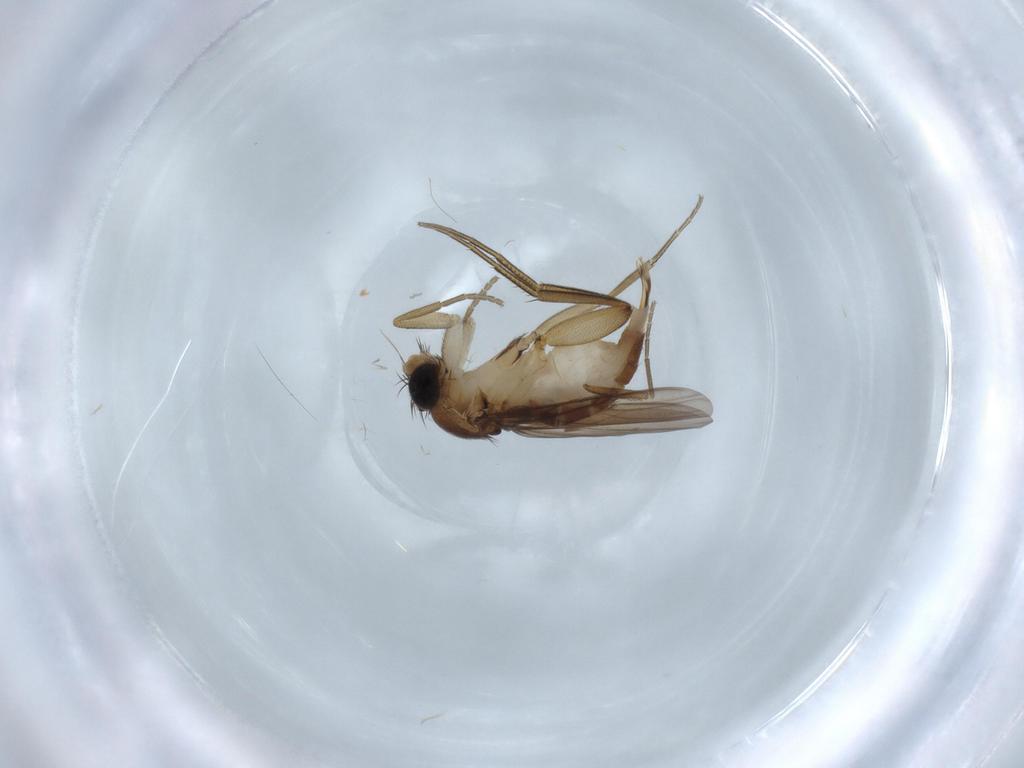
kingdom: Animalia
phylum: Arthropoda
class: Insecta
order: Diptera
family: Phoridae
